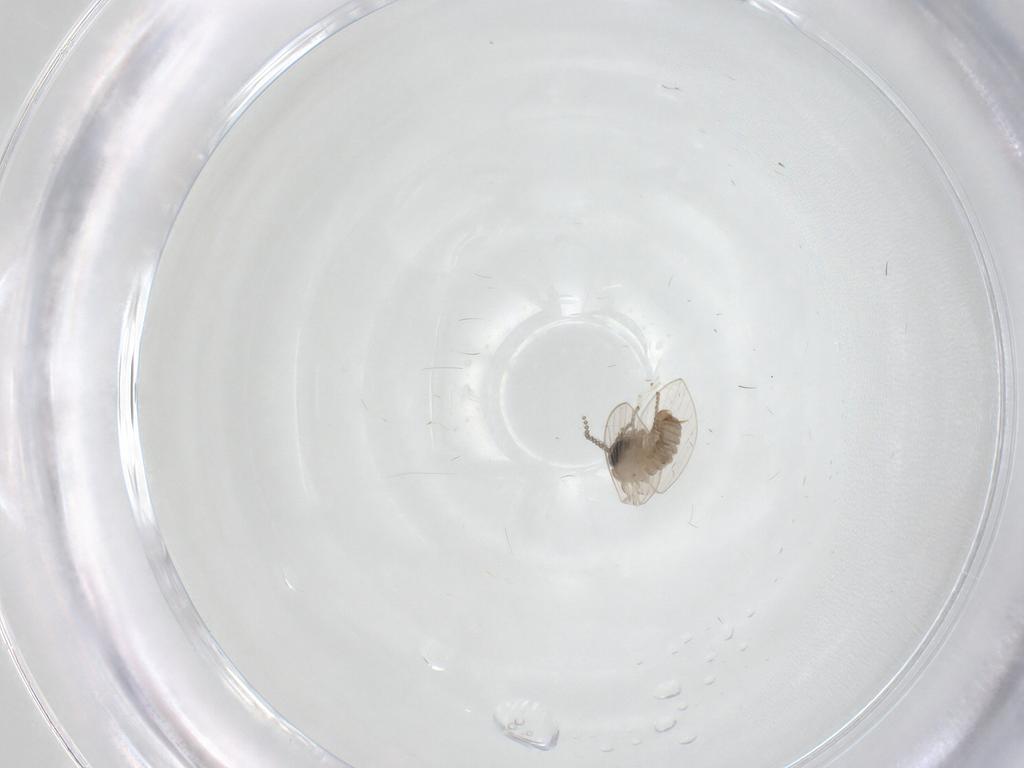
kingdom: Animalia
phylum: Arthropoda
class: Insecta
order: Diptera
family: Psychodidae
